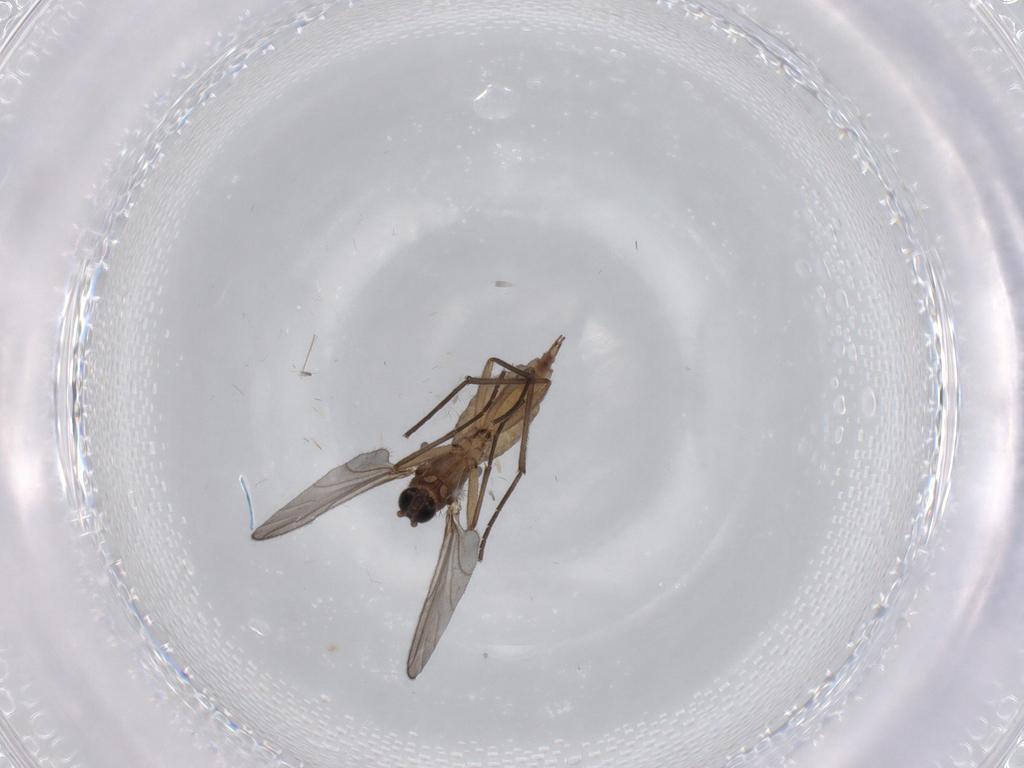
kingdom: Animalia
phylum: Arthropoda
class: Insecta
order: Diptera
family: Sciaridae
